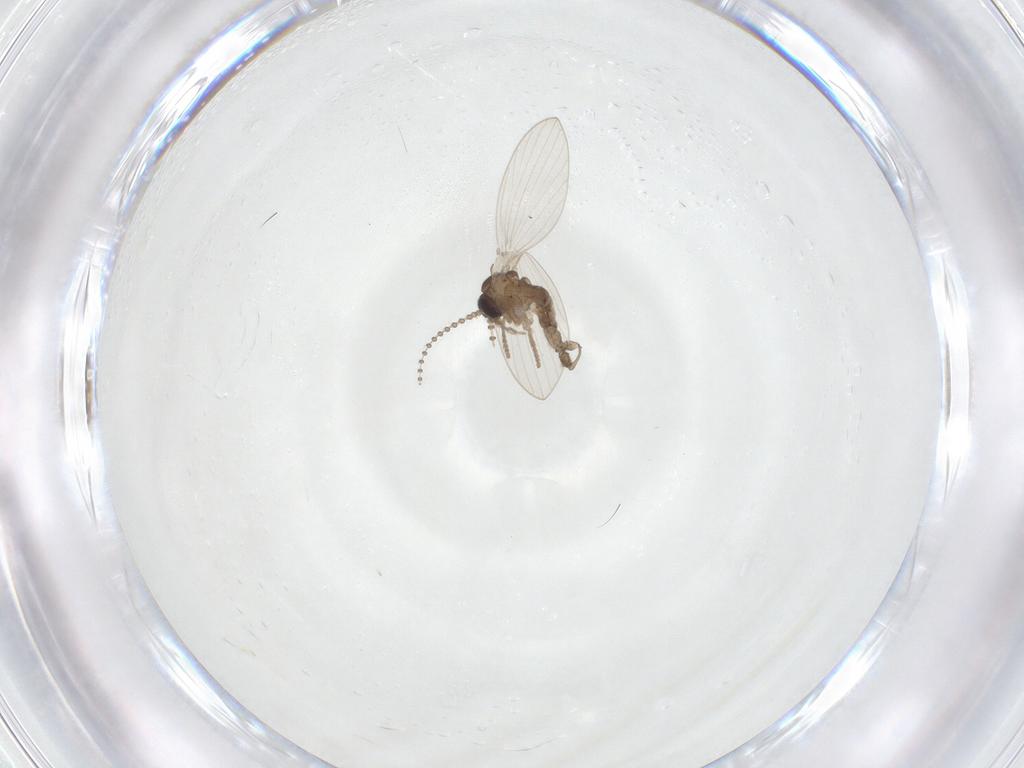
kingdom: Animalia
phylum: Arthropoda
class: Insecta
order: Diptera
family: Psychodidae
